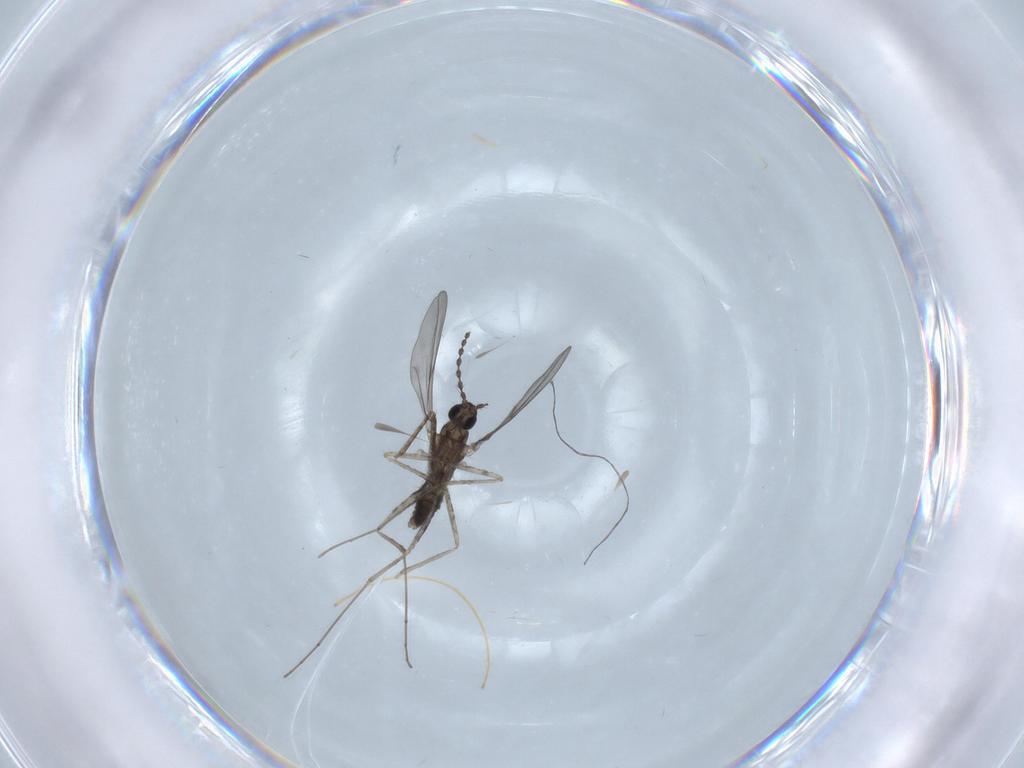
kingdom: Animalia
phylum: Arthropoda
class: Insecta
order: Diptera
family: Cecidomyiidae
